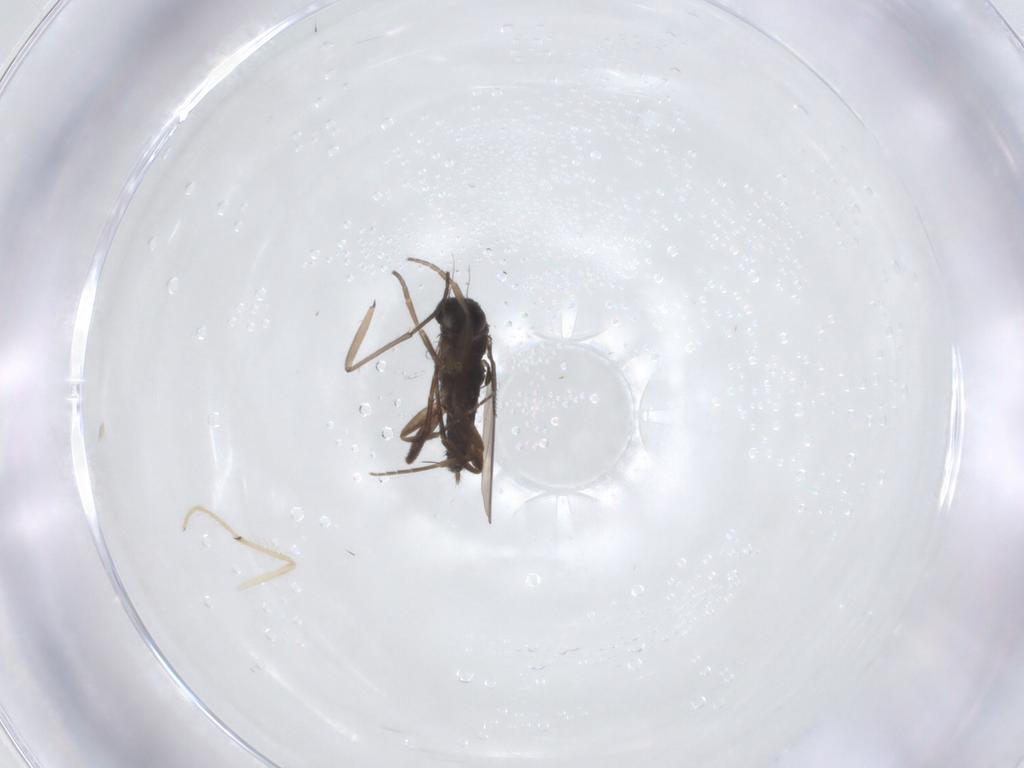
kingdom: Animalia
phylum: Arthropoda
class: Insecta
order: Diptera
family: Phoridae
